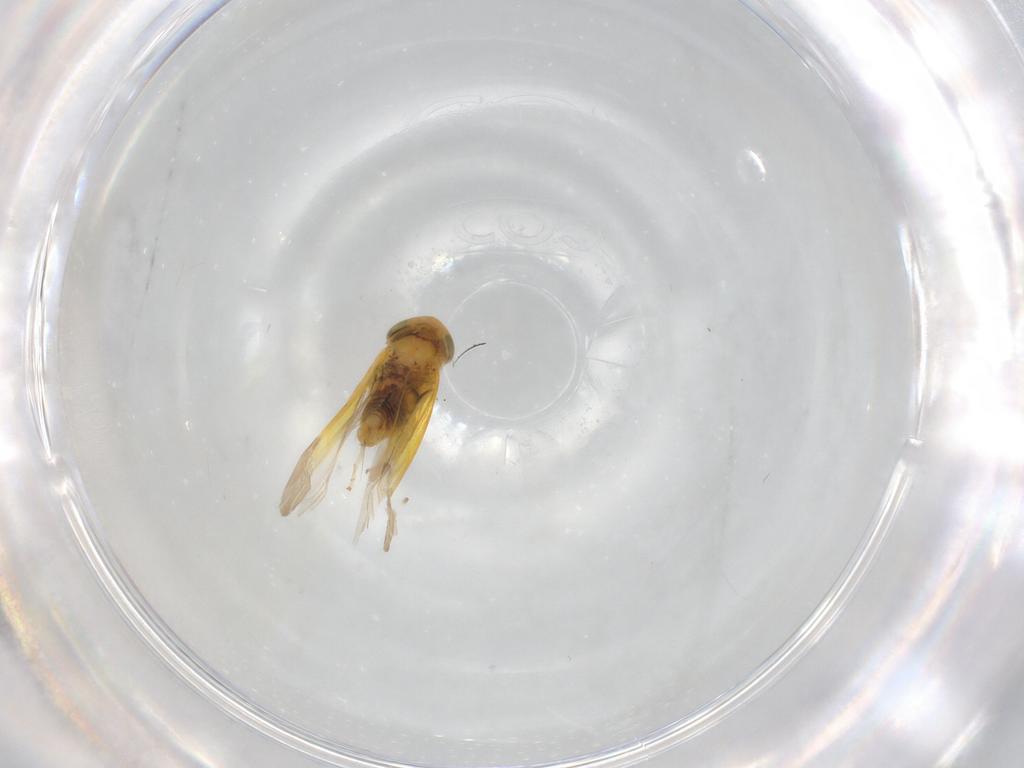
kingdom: Animalia
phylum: Arthropoda
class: Insecta
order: Hemiptera
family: Cicadellidae
